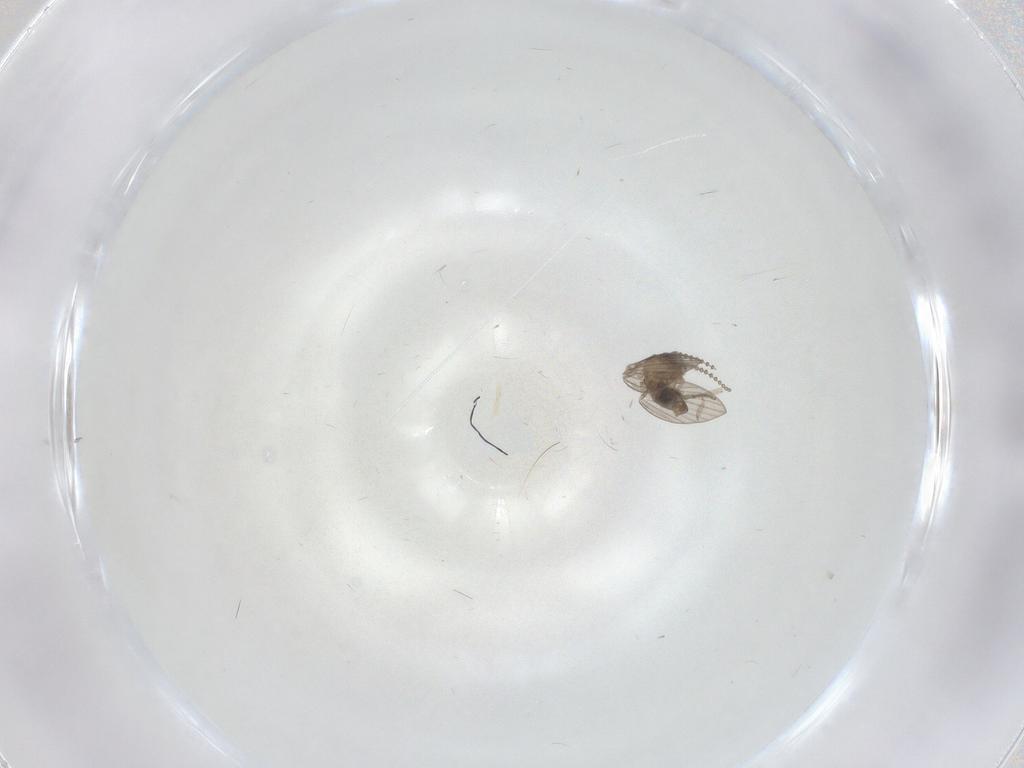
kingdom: Animalia
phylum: Arthropoda
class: Insecta
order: Diptera
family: Psychodidae
